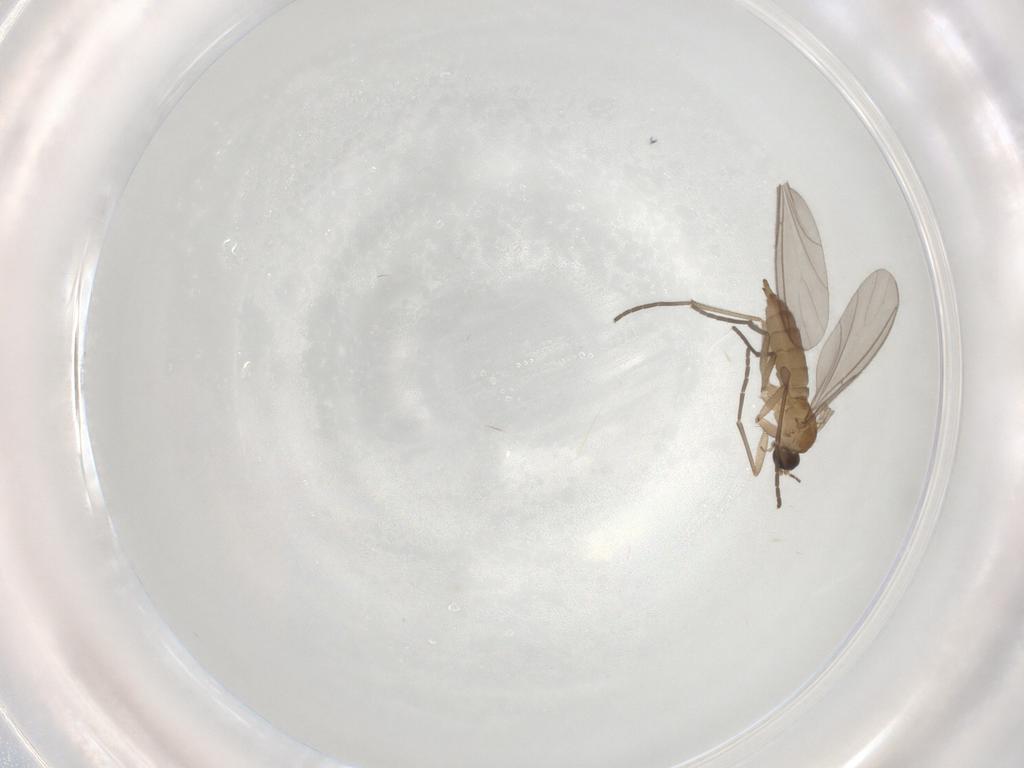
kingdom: Animalia
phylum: Arthropoda
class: Insecta
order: Diptera
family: Sciaridae
